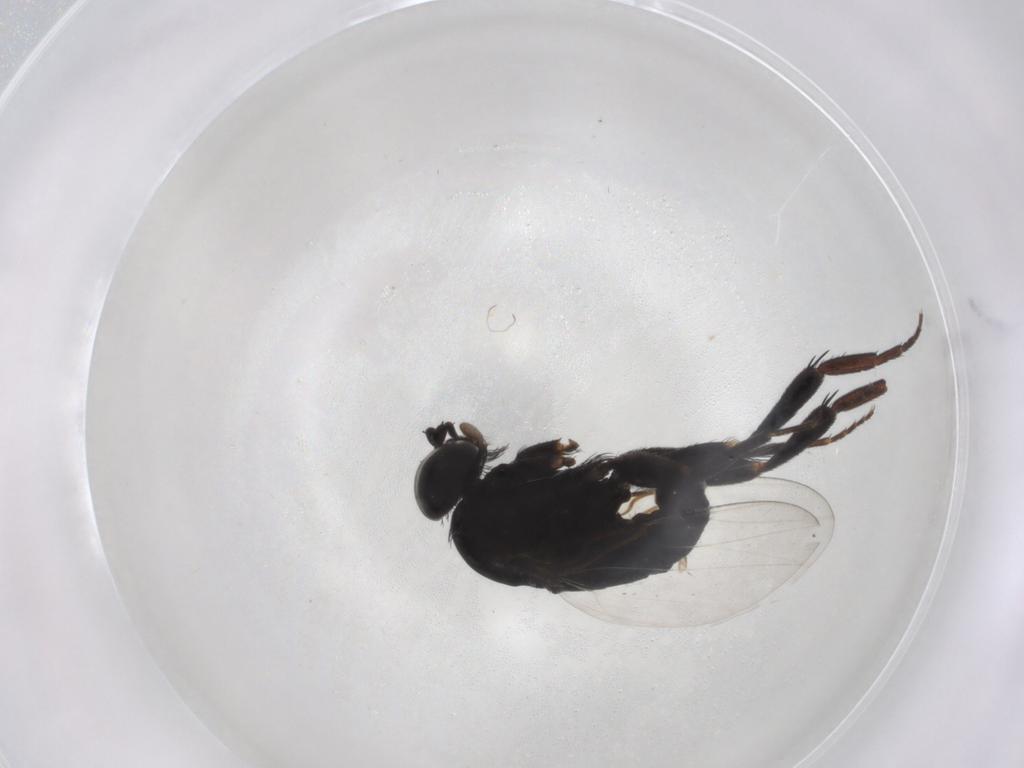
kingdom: Animalia
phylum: Arthropoda
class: Insecta
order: Diptera
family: Phoridae
